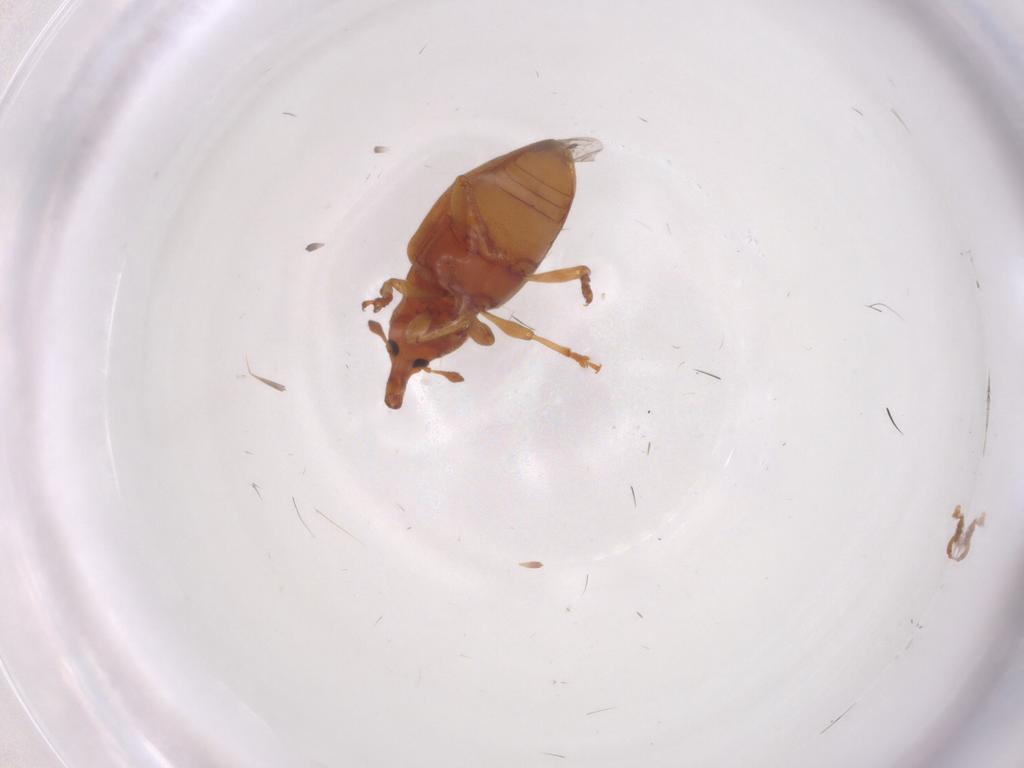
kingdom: Animalia
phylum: Arthropoda
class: Insecta
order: Coleoptera
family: Curculionidae
